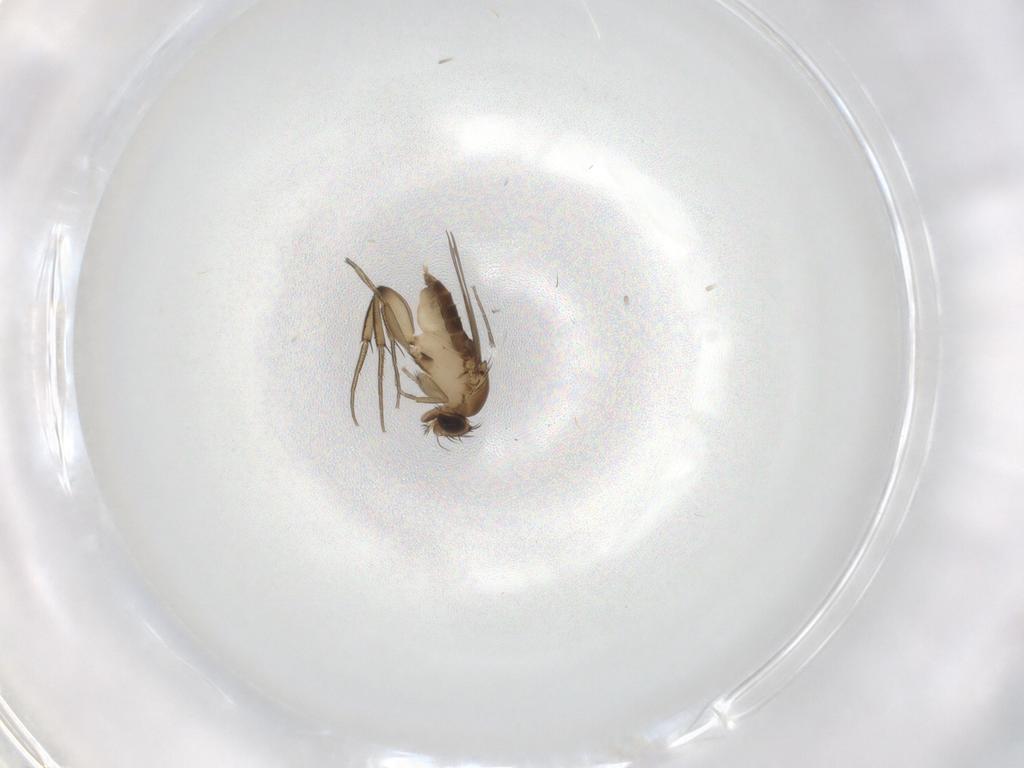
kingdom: Animalia
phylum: Arthropoda
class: Insecta
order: Diptera
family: Phoridae
